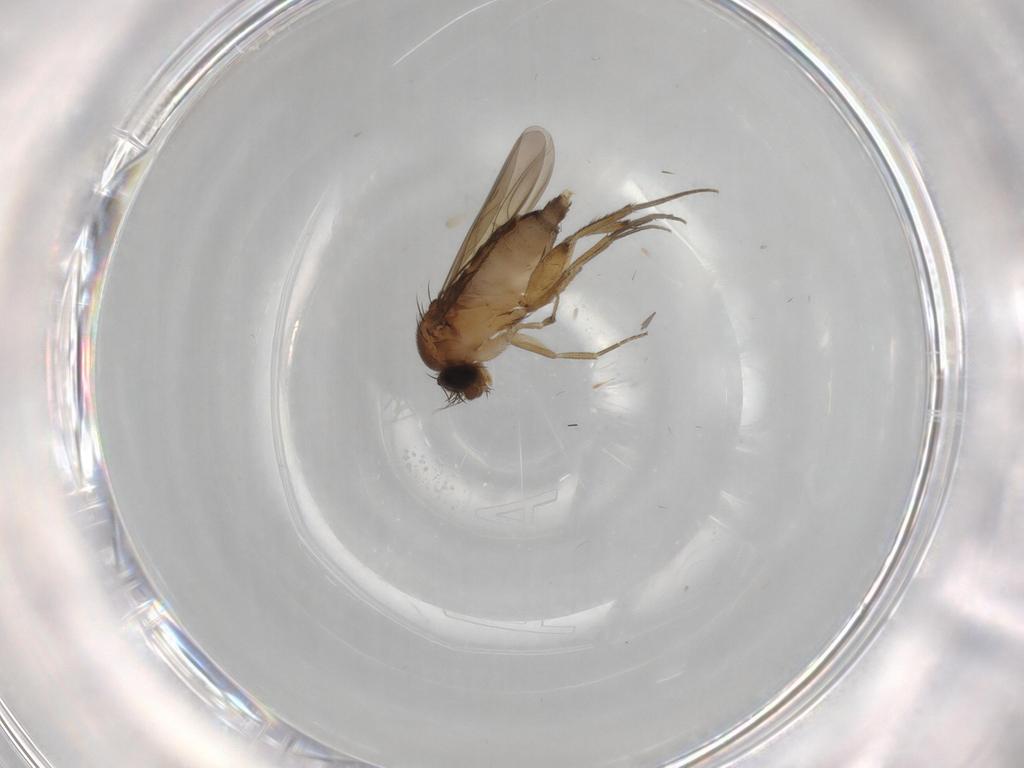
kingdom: Animalia
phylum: Arthropoda
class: Insecta
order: Diptera
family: Phoridae
